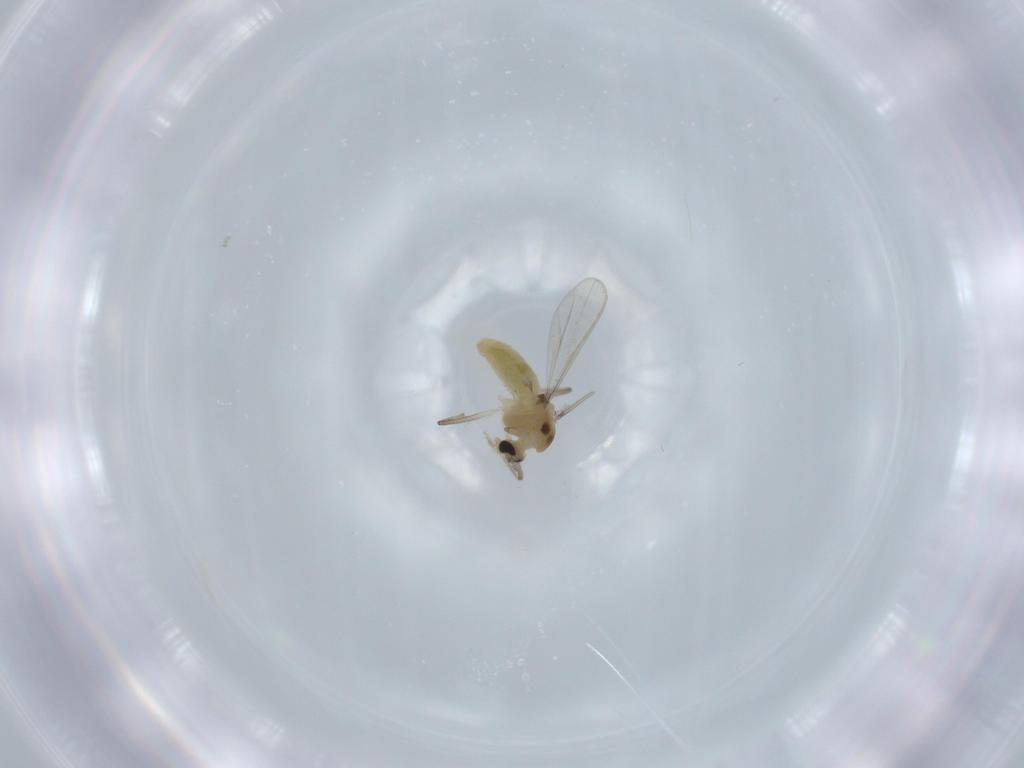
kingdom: Animalia
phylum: Arthropoda
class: Insecta
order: Diptera
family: Chironomidae
